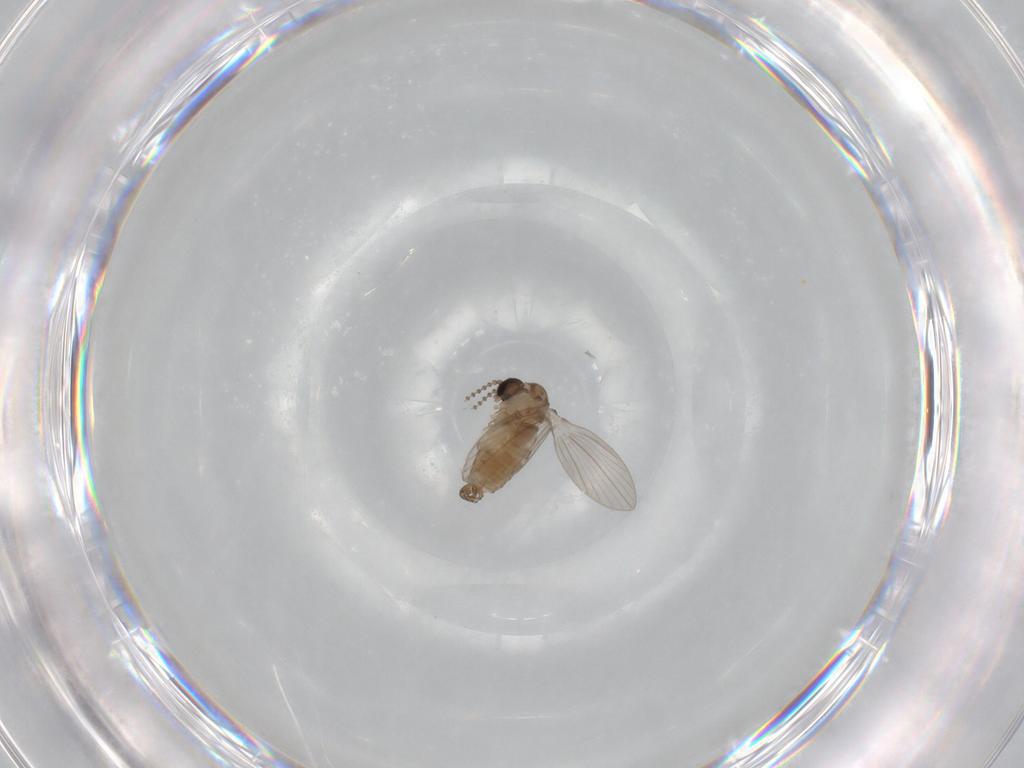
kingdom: Animalia
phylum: Arthropoda
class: Insecta
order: Diptera
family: Psychodidae
